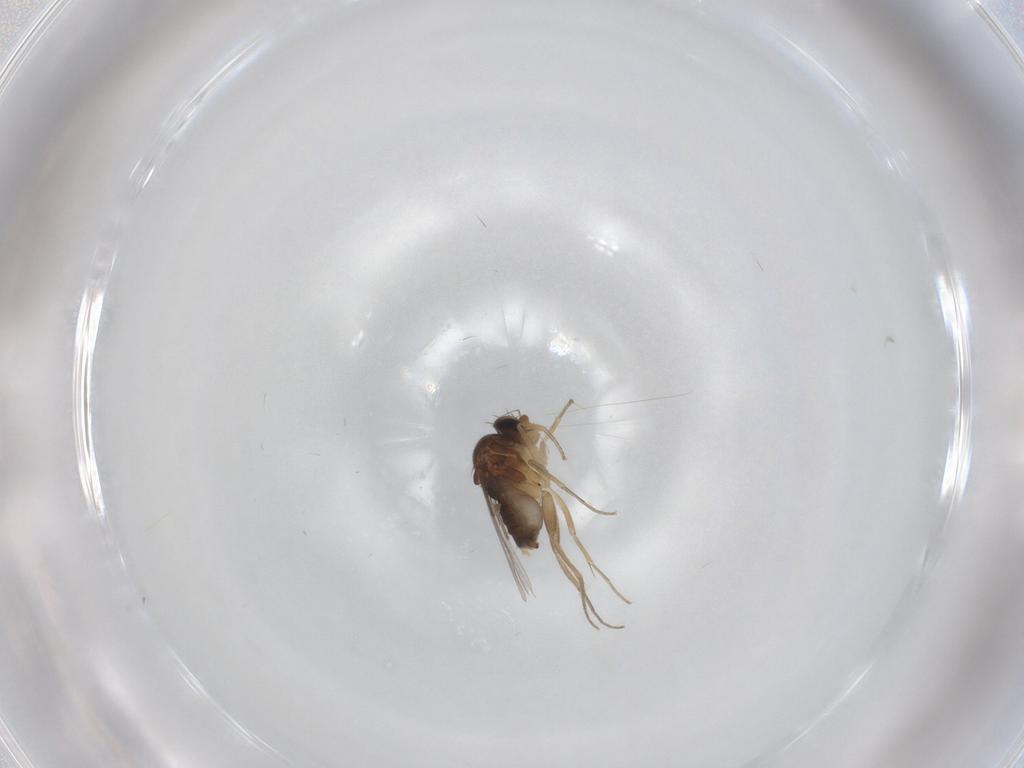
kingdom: Animalia
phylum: Arthropoda
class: Insecta
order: Diptera
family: Phoridae
